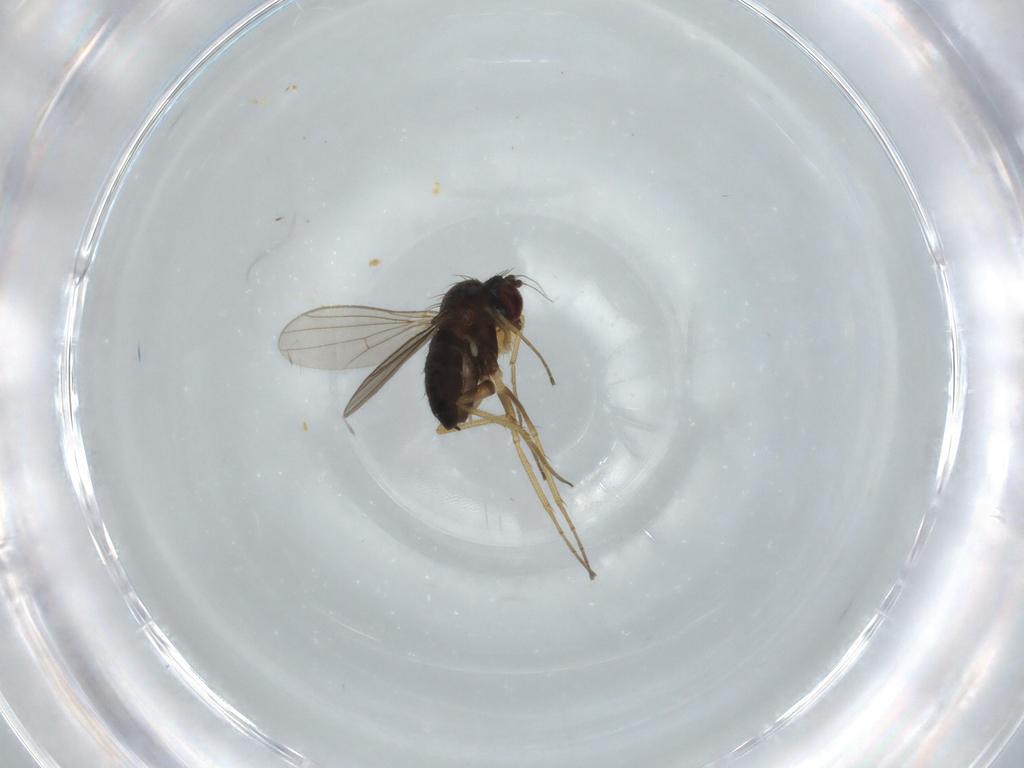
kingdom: Animalia
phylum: Arthropoda
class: Insecta
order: Diptera
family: Dolichopodidae
